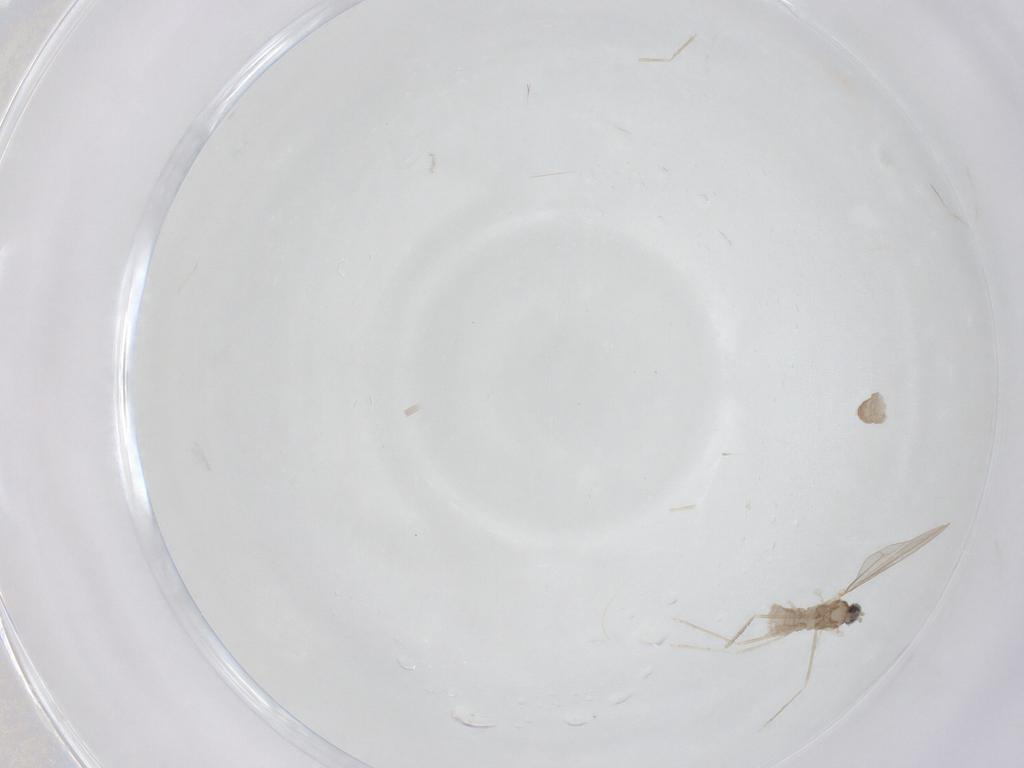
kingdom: Animalia
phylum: Arthropoda
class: Insecta
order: Diptera
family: Cecidomyiidae
